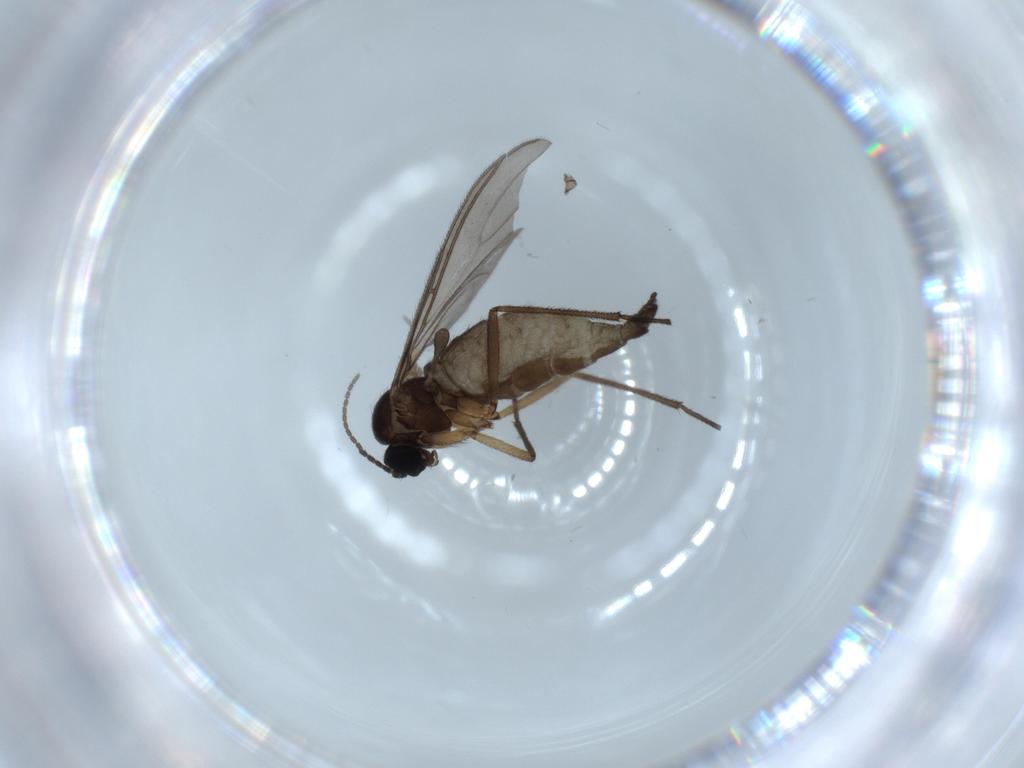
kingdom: Animalia
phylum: Arthropoda
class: Insecta
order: Diptera
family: Sciaridae
